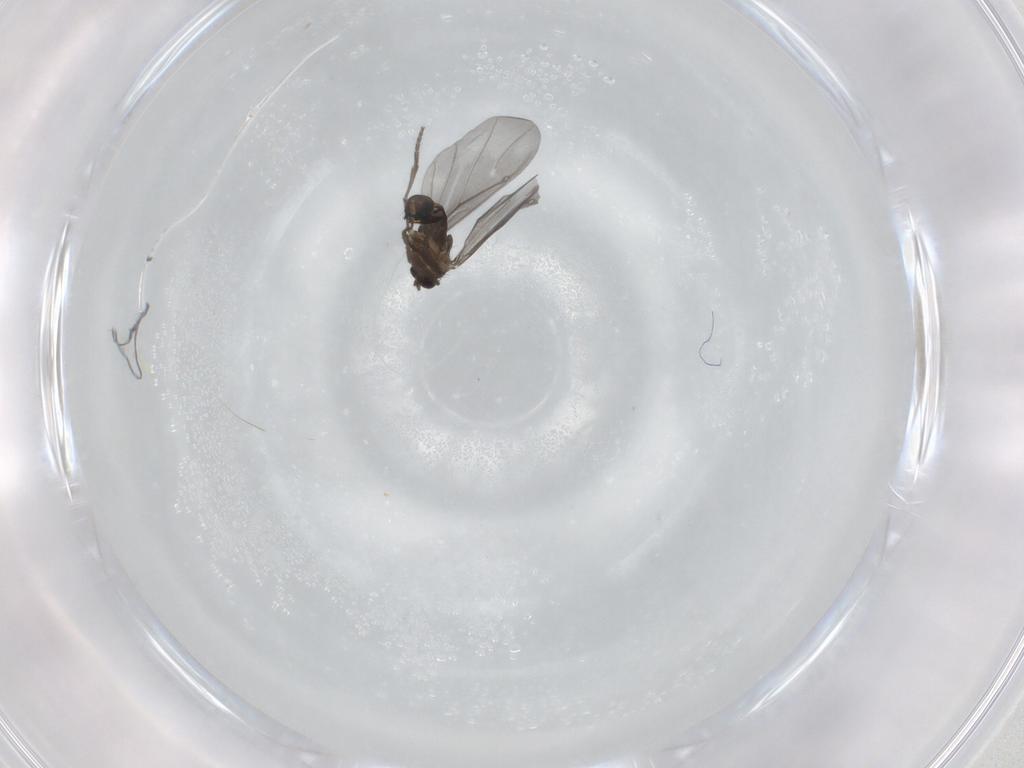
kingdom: Animalia
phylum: Arthropoda
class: Insecta
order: Diptera
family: Phoridae
